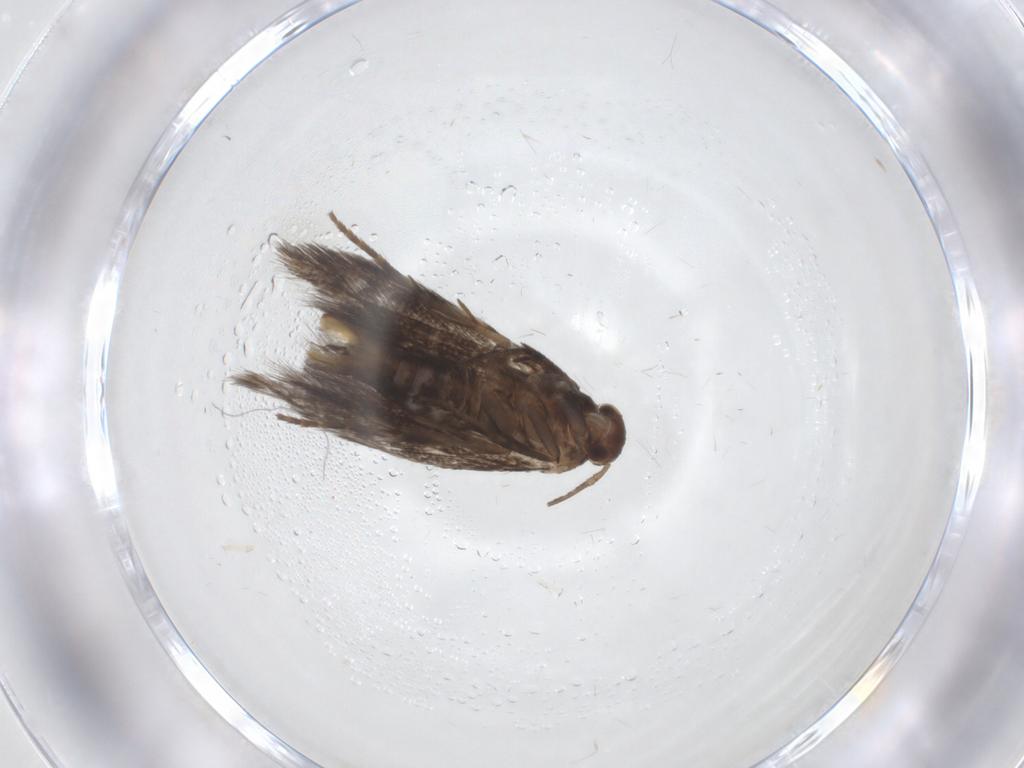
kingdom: Animalia
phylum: Arthropoda
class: Insecta
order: Lepidoptera
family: Elachistidae
